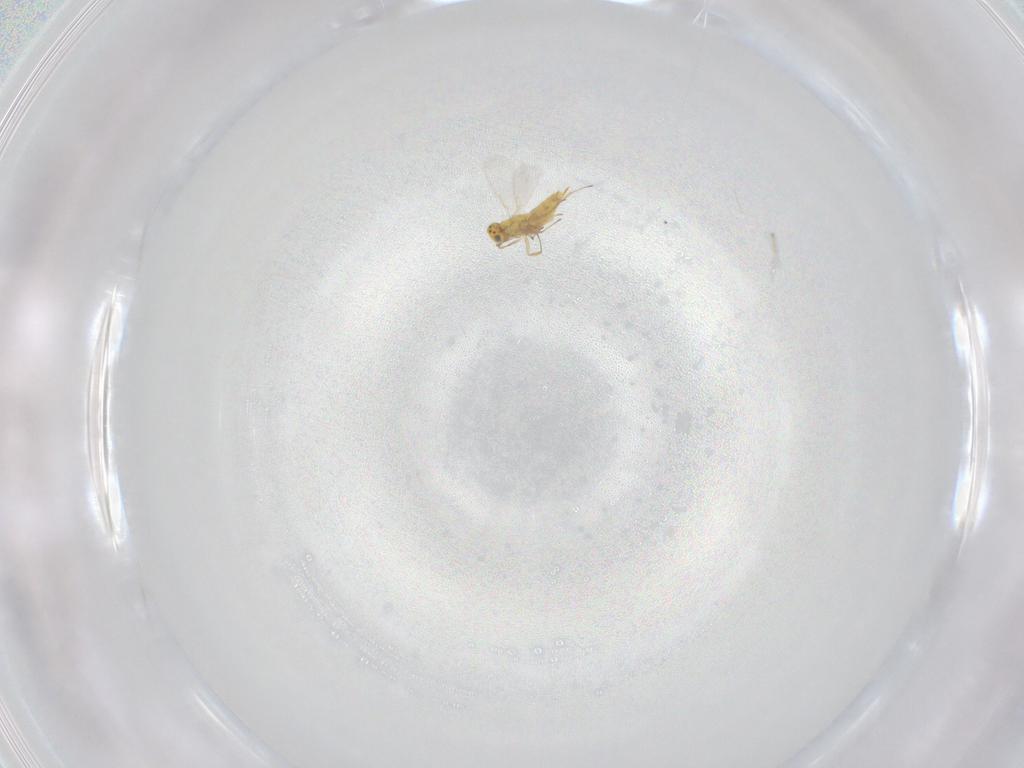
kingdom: Animalia
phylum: Arthropoda
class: Insecta
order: Hymenoptera
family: Aphelinidae
